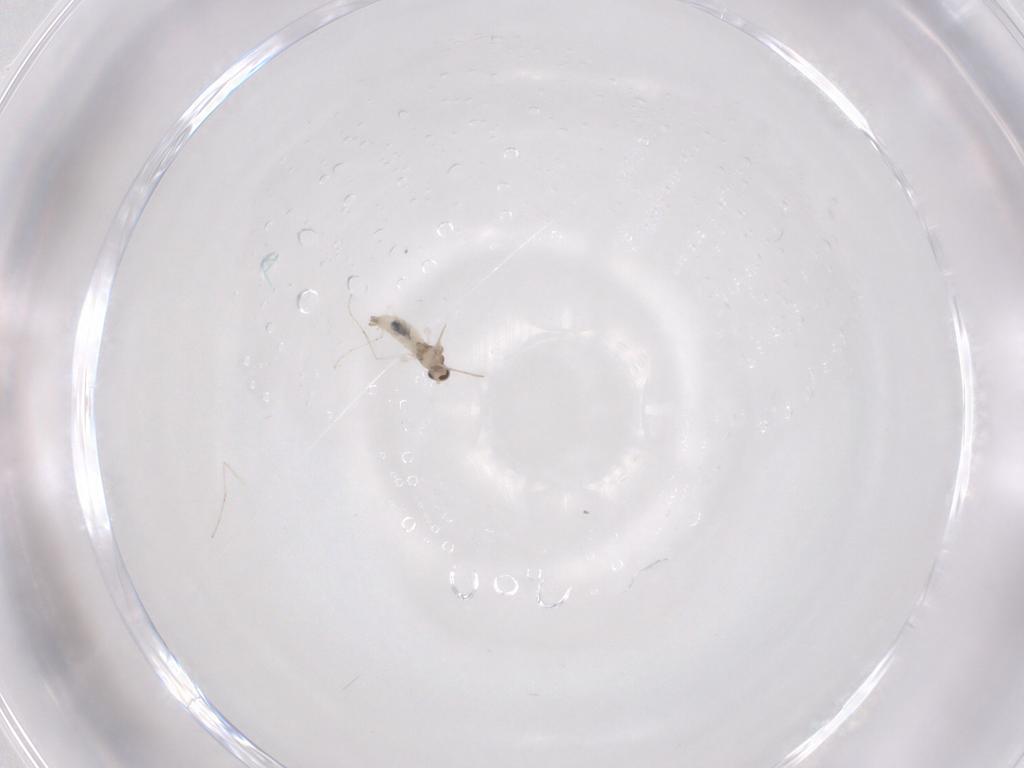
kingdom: Animalia
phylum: Arthropoda
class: Insecta
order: Diptera
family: Cecidomyiidae
